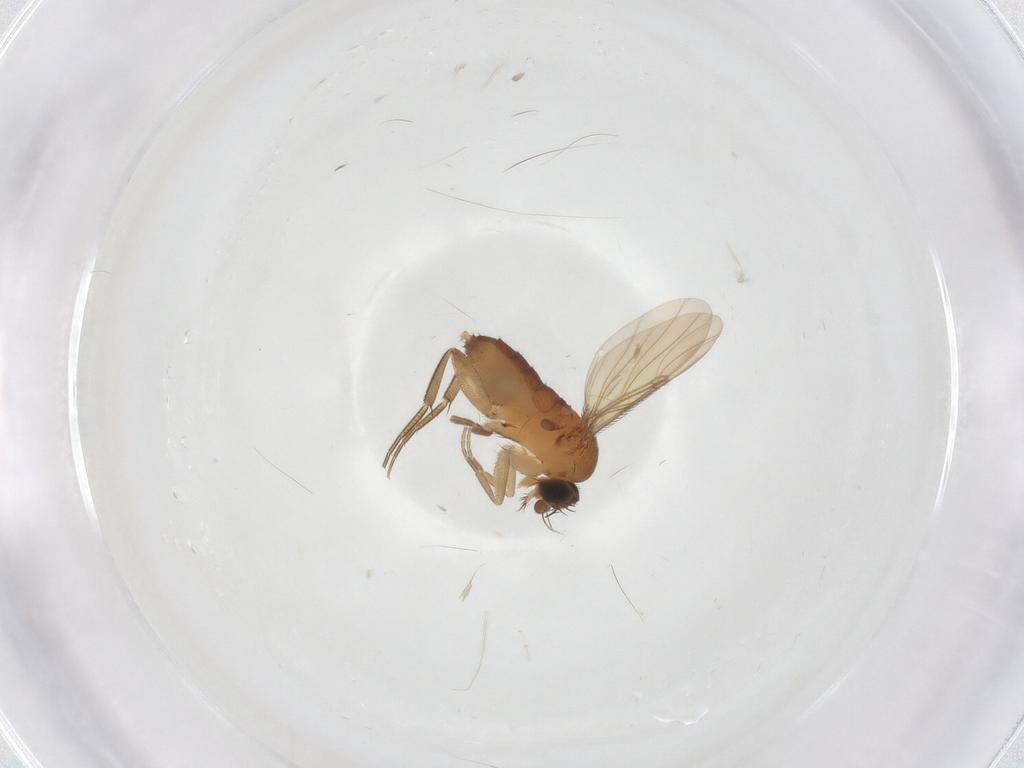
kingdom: Animalia
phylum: Arthropoda
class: Insecta
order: Diptera
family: Phoridae
